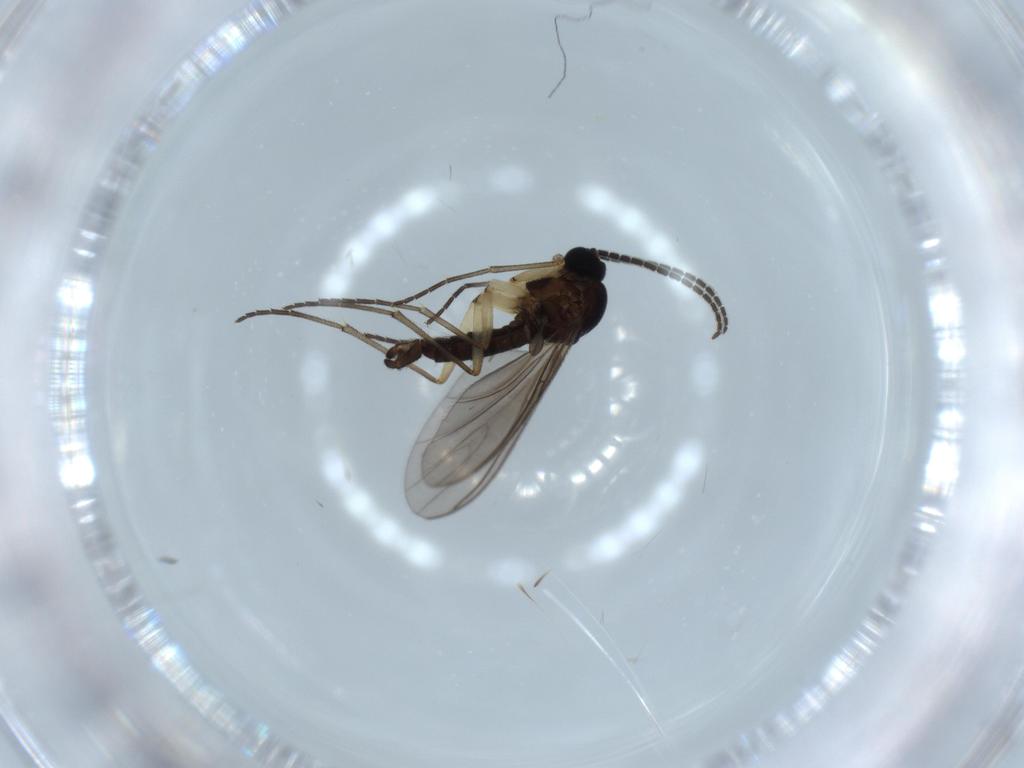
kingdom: Animalia
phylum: Arthropoda
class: Insecta
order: Diptera
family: Sciaridae
